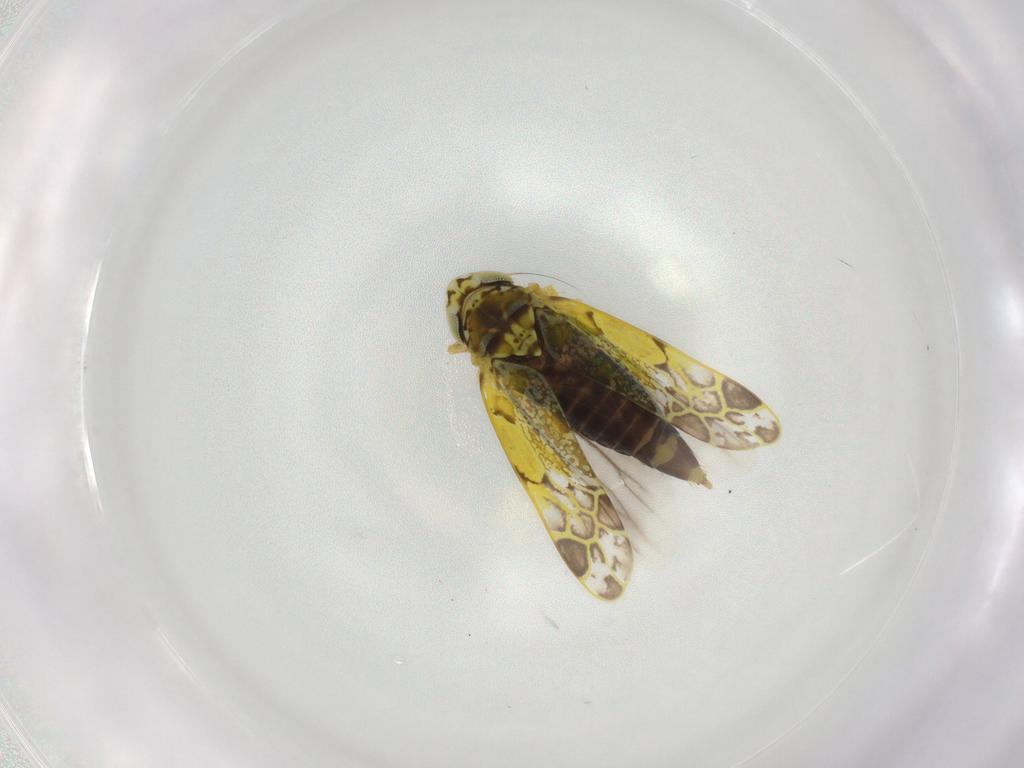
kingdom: Animalia
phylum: Arthropoda
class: Insecta
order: Hemiptera
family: Cicadellidae
